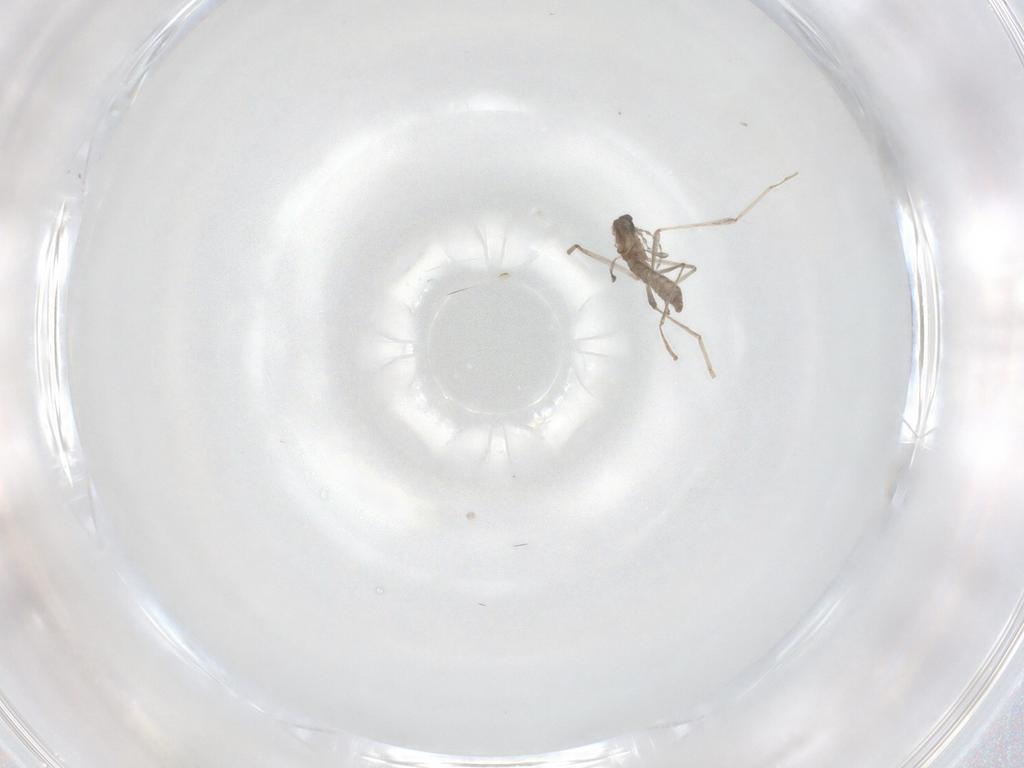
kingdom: Animalia
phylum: Arthropoda
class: Insecta
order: Diptera
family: Cecidomyiidae
